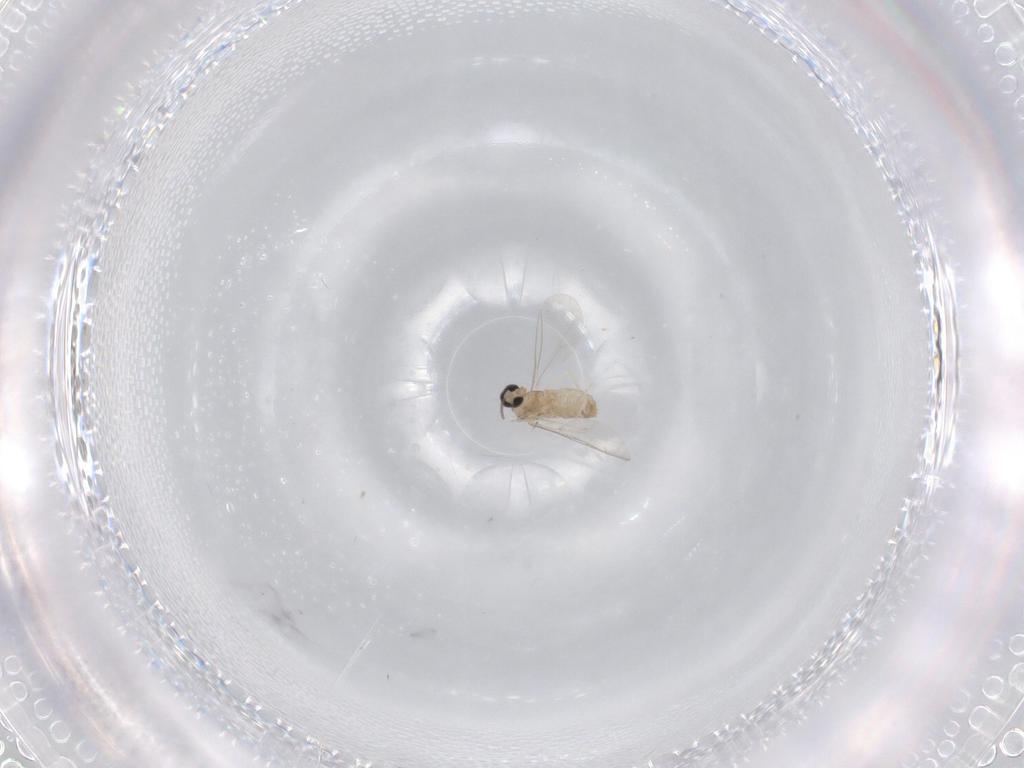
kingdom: Animalia
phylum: Arthropoda
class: Insecta
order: Diptera
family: Cecidomyiidae
